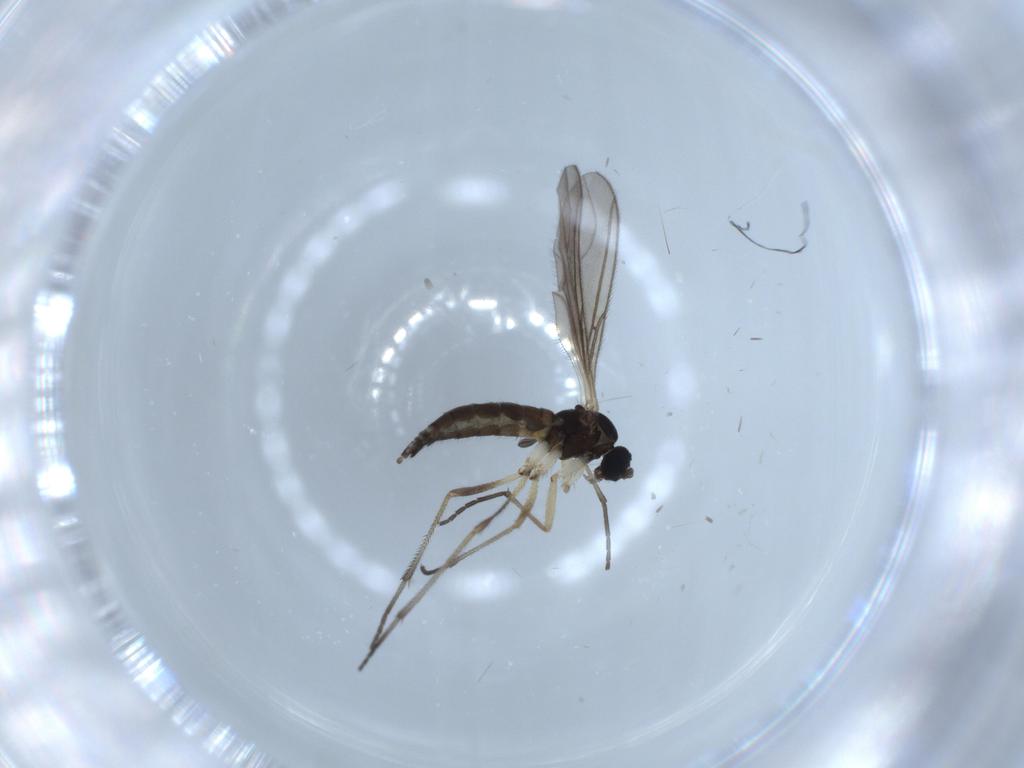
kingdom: Animalia
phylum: Arthropoda
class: Insecta
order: Diptera
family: Sciaridae
